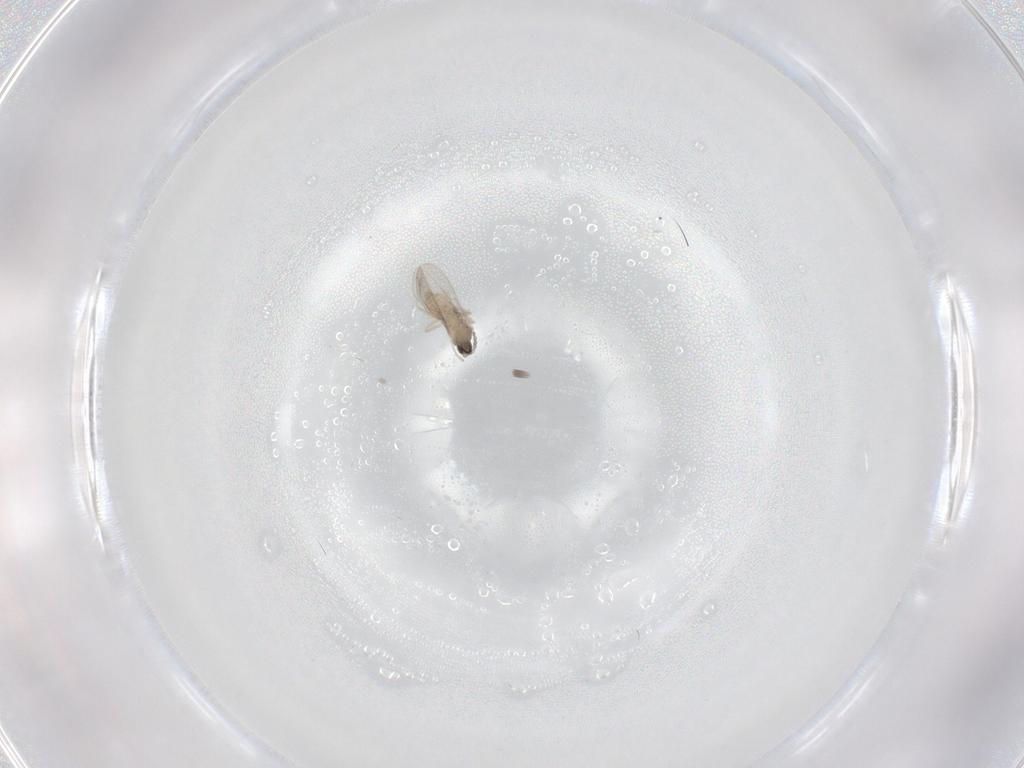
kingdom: Animalia
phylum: Arthropoda
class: Insecta
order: Diptera
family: Cecidomyiidae
